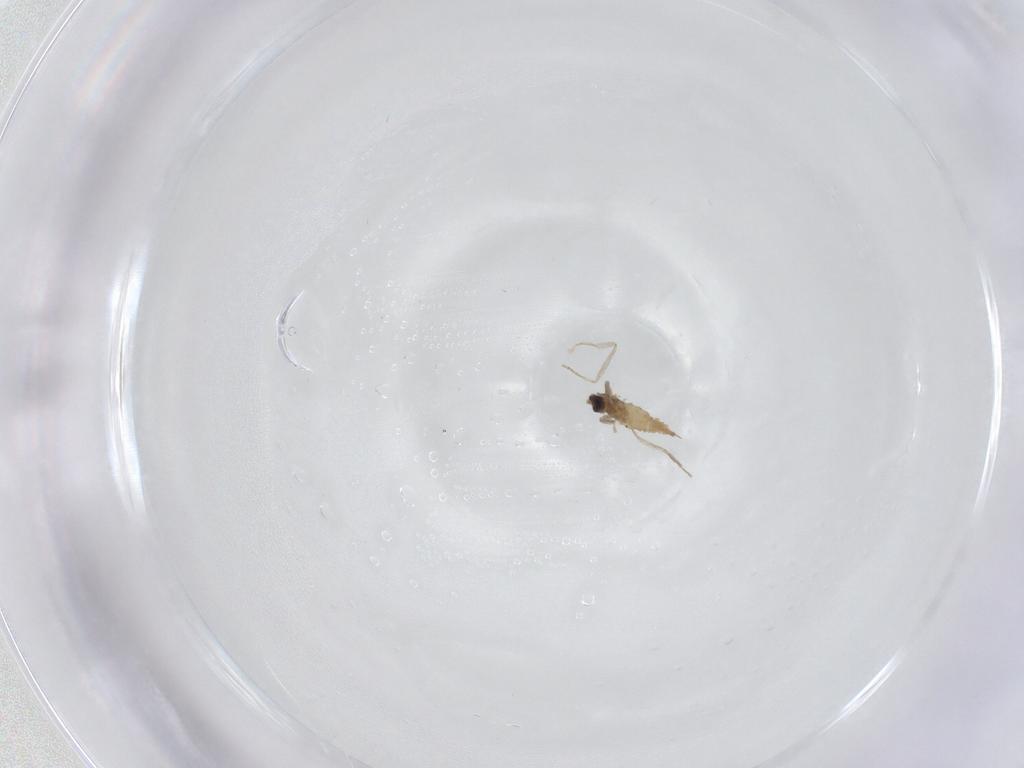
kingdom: Animalia
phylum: Arthropoda
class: Insecta
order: Diptera
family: Cecidomyiidae
